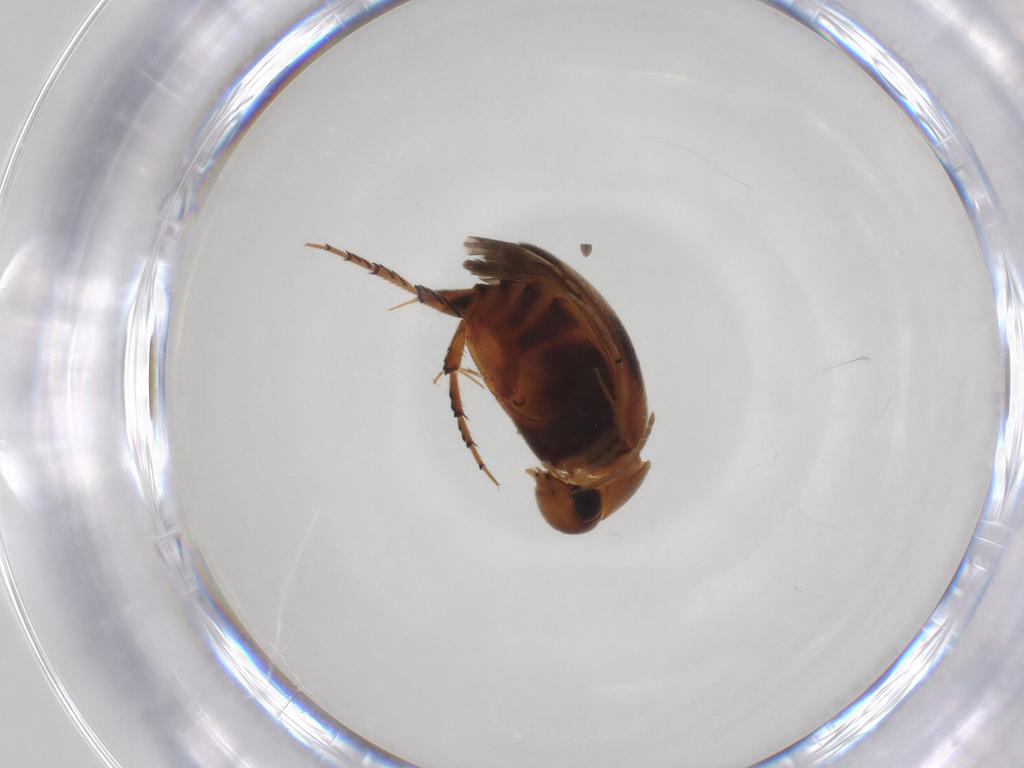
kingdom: Animalia
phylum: Arthropoda
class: Insecta
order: Coleoptera
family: Mordellidae
